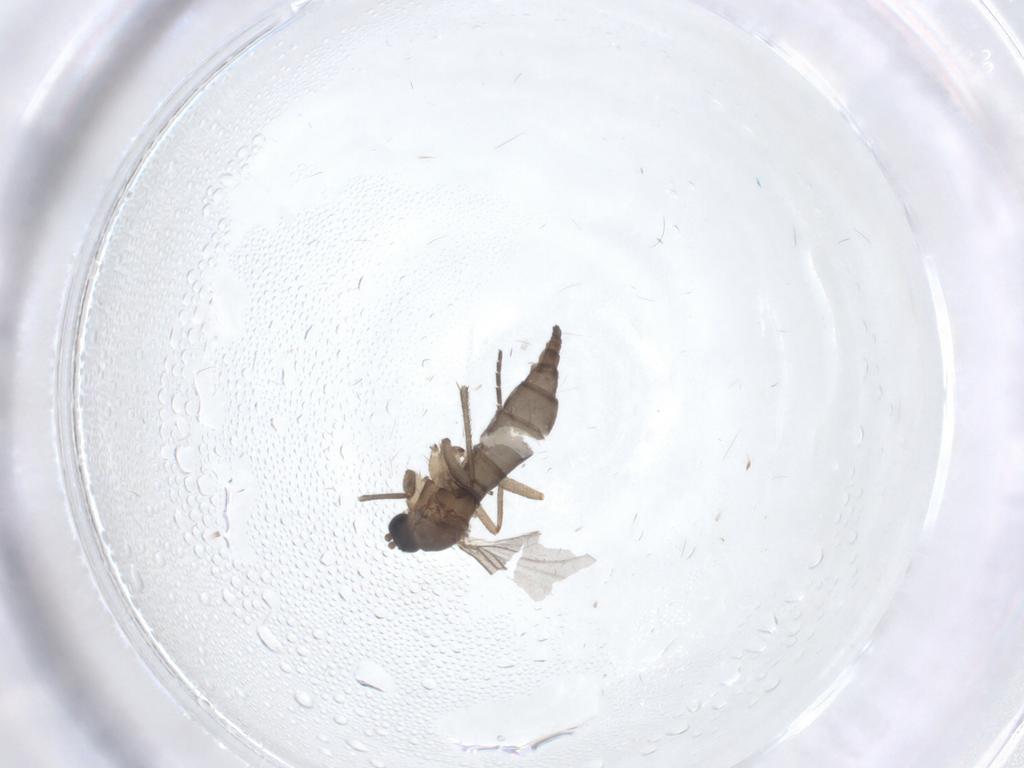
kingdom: Animalia
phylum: Arthropoda
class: Insecta
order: Diptera
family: Sciaridae
